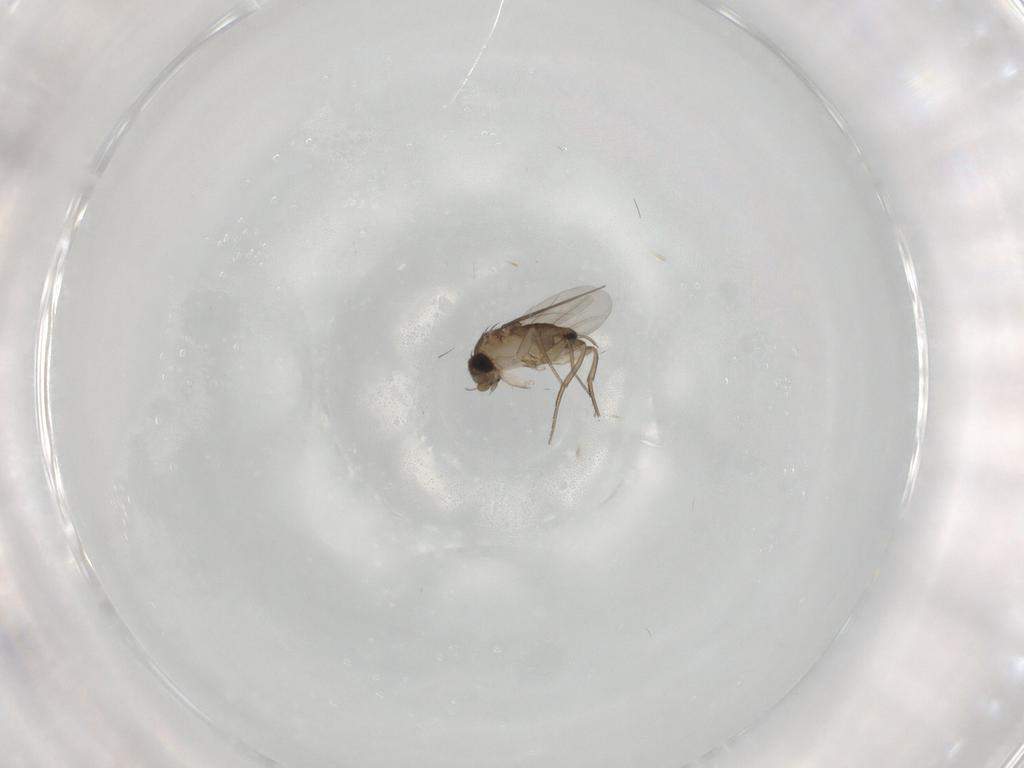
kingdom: Animalia
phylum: Arthropoda
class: Insecta
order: Diptera
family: Phoridae
